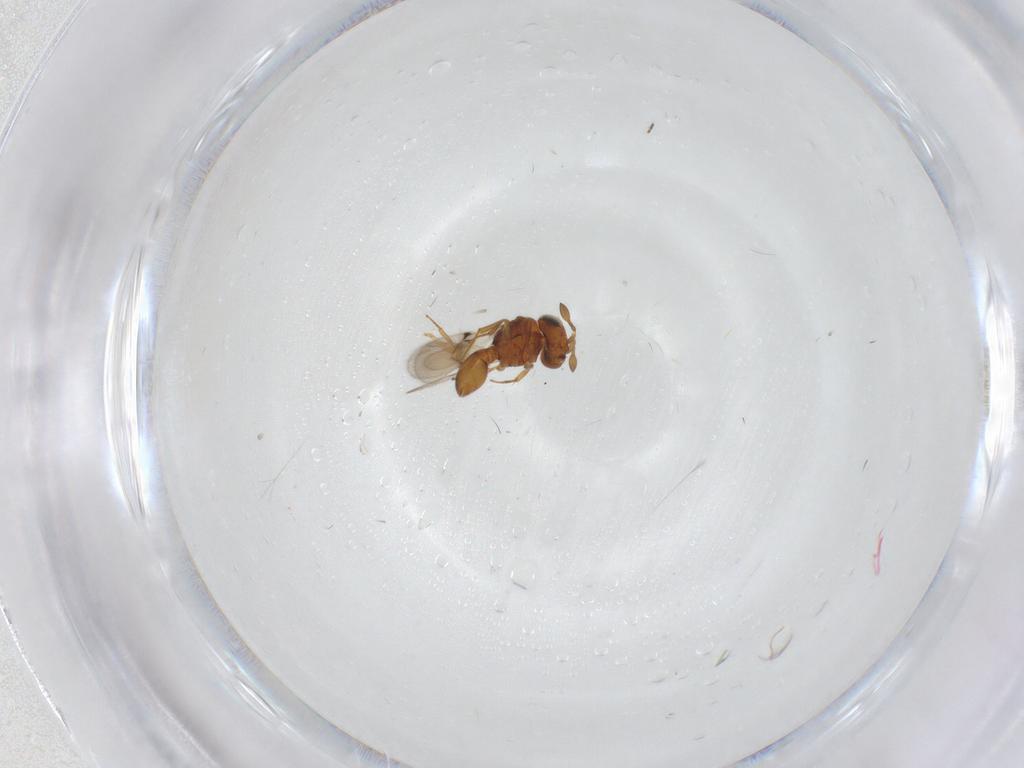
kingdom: Animalia
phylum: Arthropoda
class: Insecta
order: Hymenoptera
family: Scelionidae
